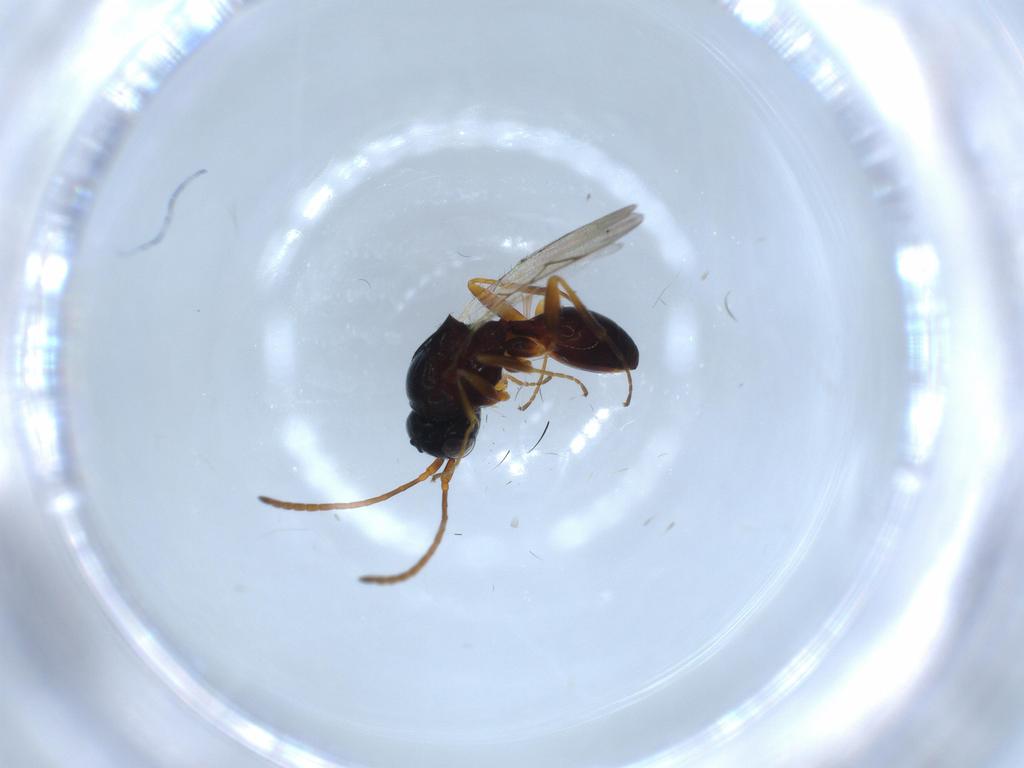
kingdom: Animalia
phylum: Arthropoda
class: Insecta
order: Hymenoptera
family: Figitidae
